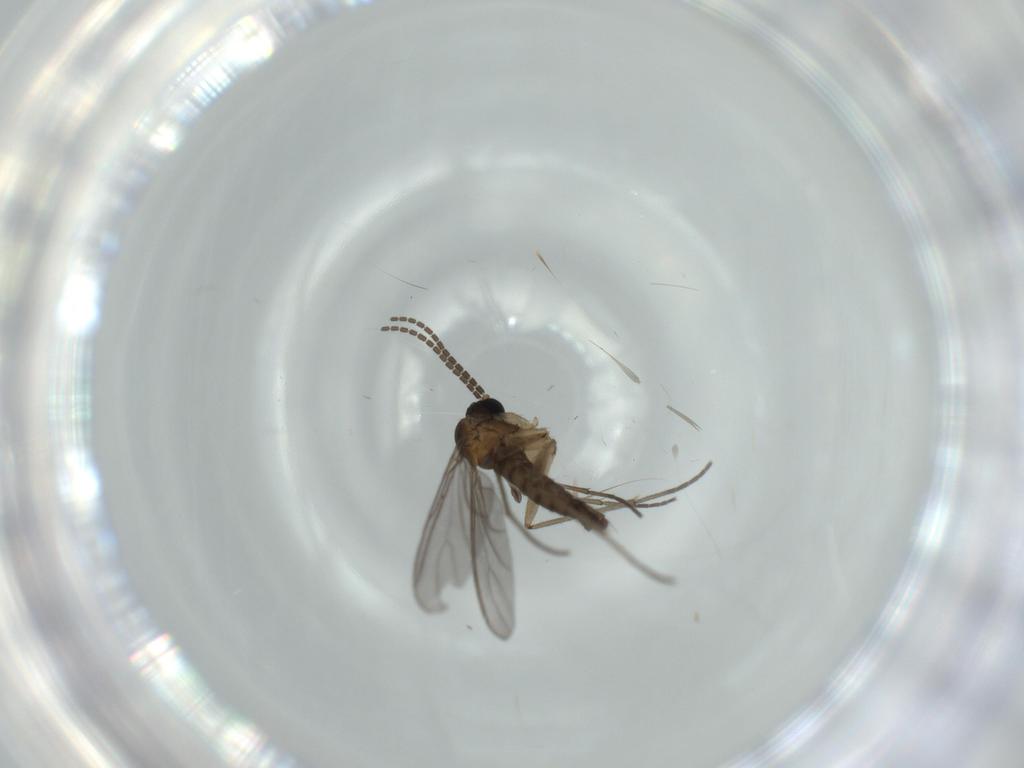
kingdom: Animalia
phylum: Arthropoda
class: Insecta
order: Diptera
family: Sciaridae
